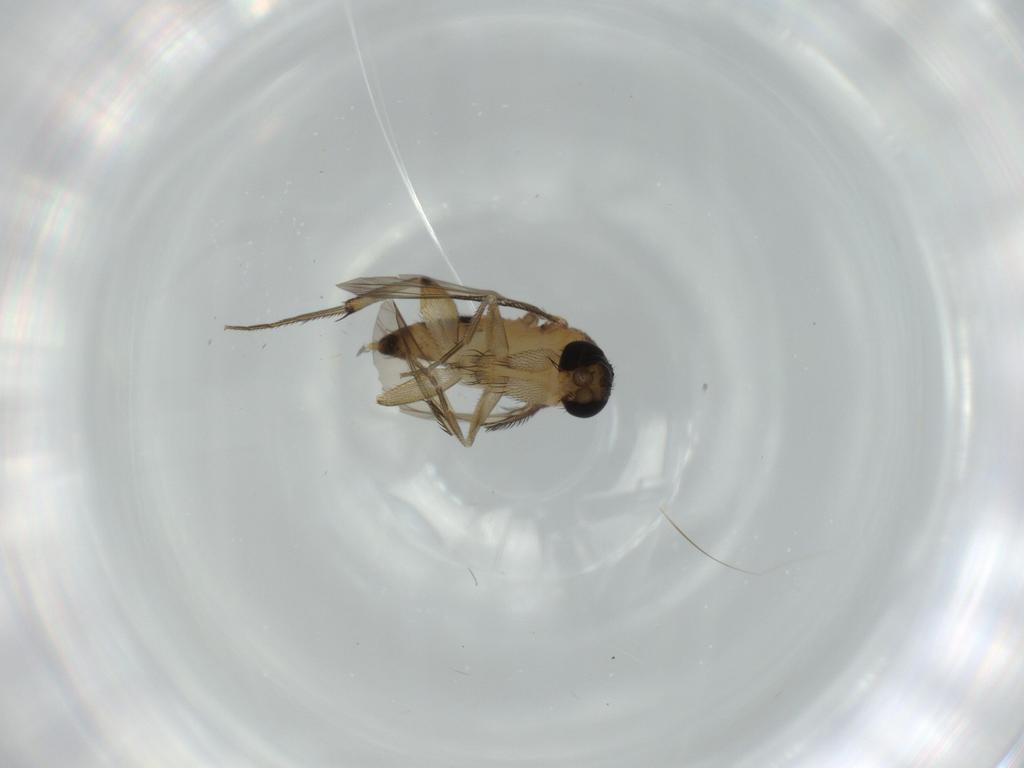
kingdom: Animalia
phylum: Arthropoda
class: Insecta
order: Diptera
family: Phoridae
